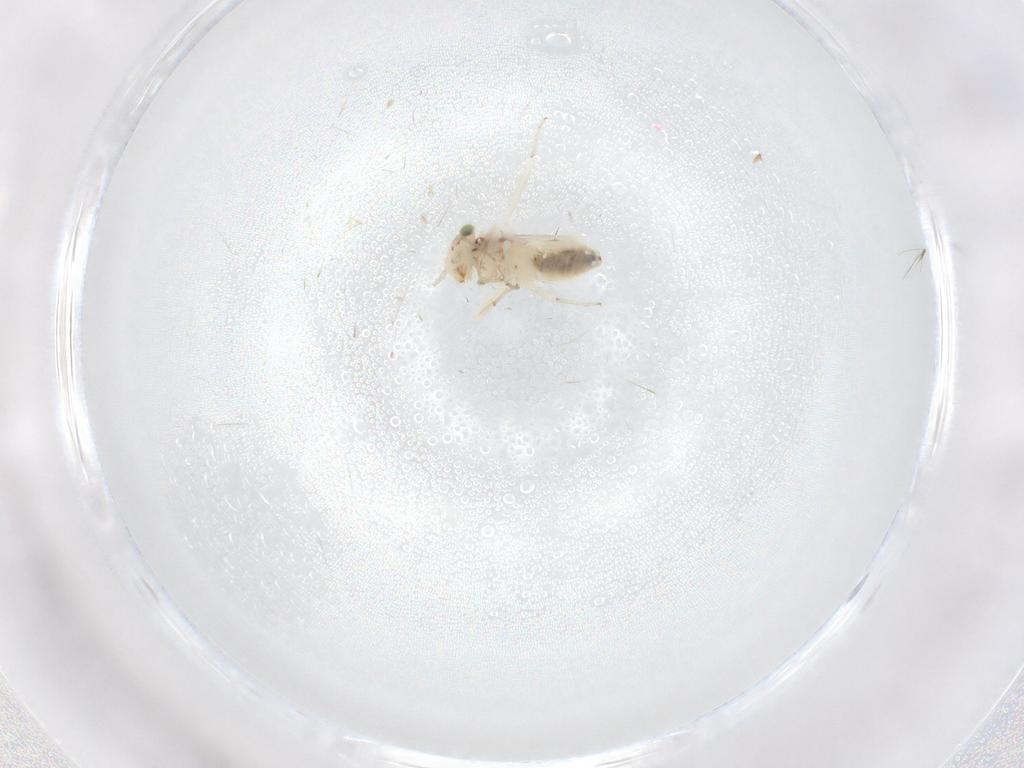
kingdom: Animalia
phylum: Arthropoda
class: Insecta
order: Psocodea
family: Lepidopsocidae
